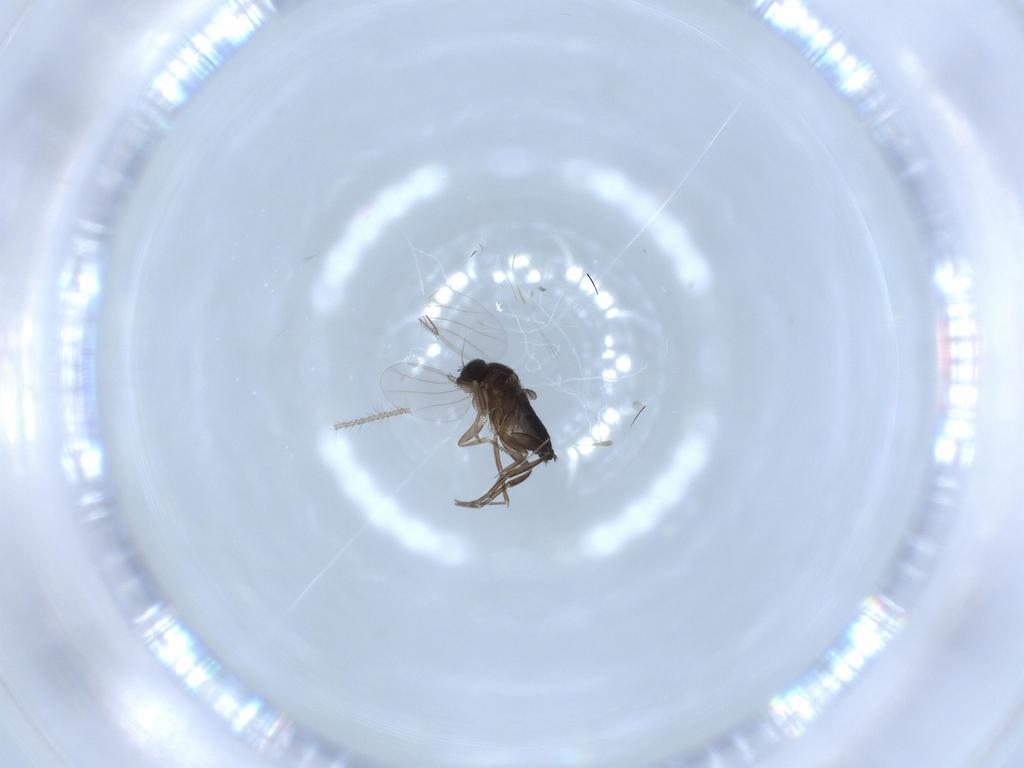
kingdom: Animalia
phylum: Arthropoda
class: Insecta
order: Diptera
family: Phoridae
